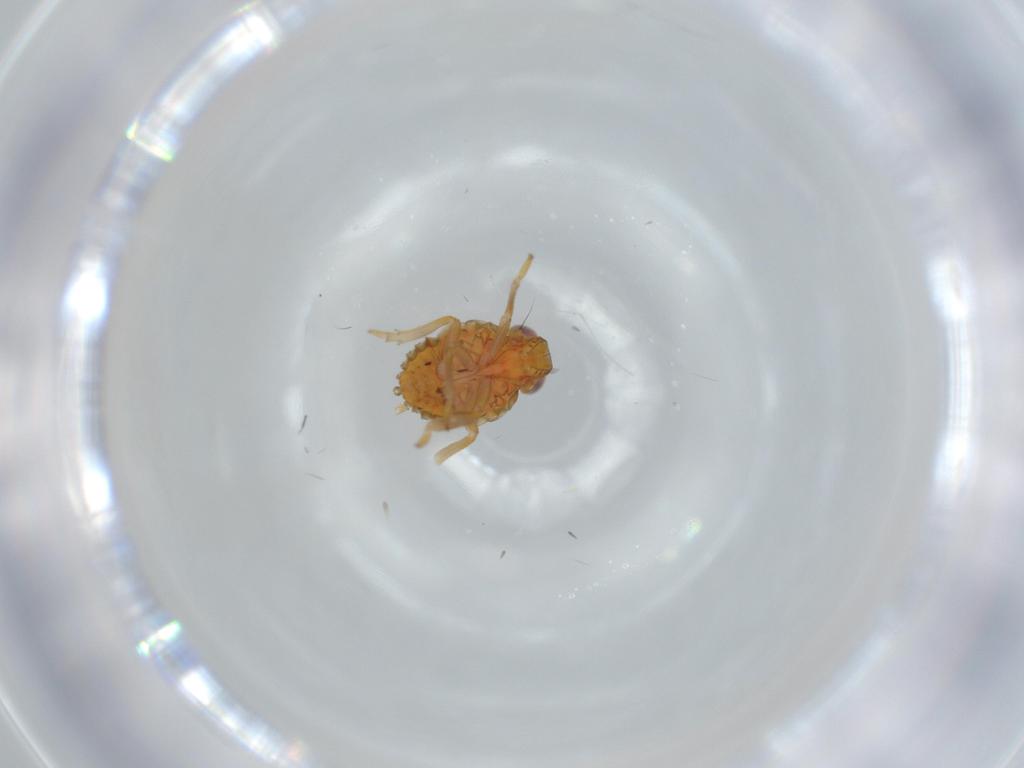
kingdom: Animalia
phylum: Arthropoda
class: Insecta
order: Hemiptera
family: Issidae
